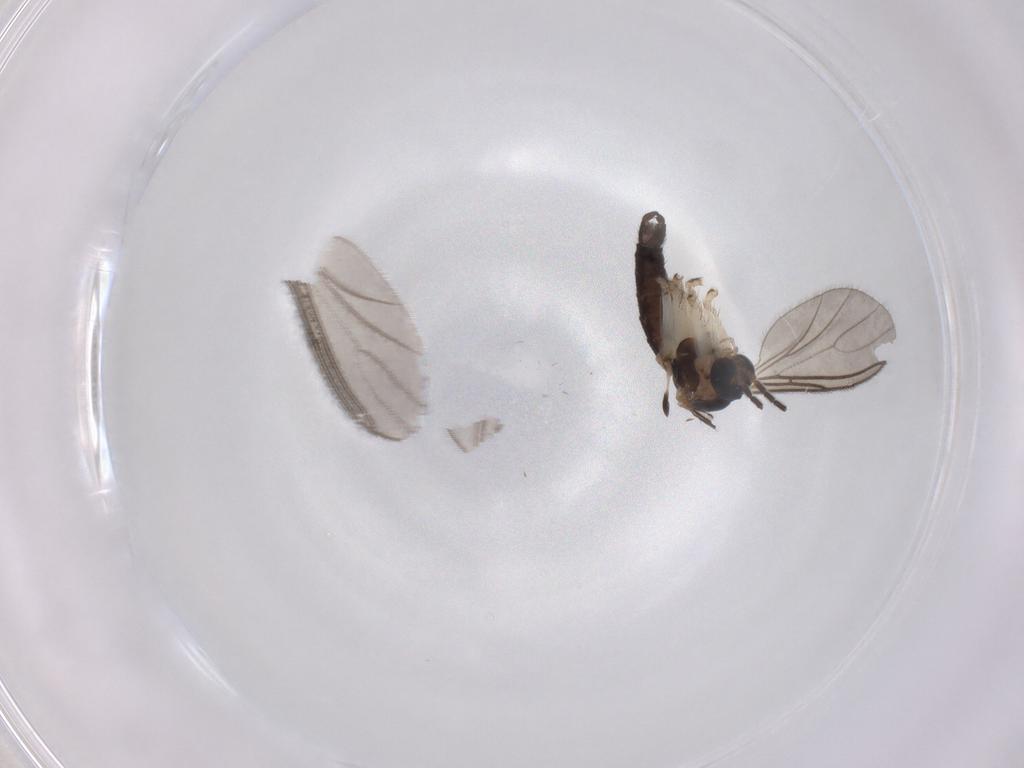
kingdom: Animalia
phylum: Arthropoda
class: Insecta
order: Diptera
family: Sciaridae
